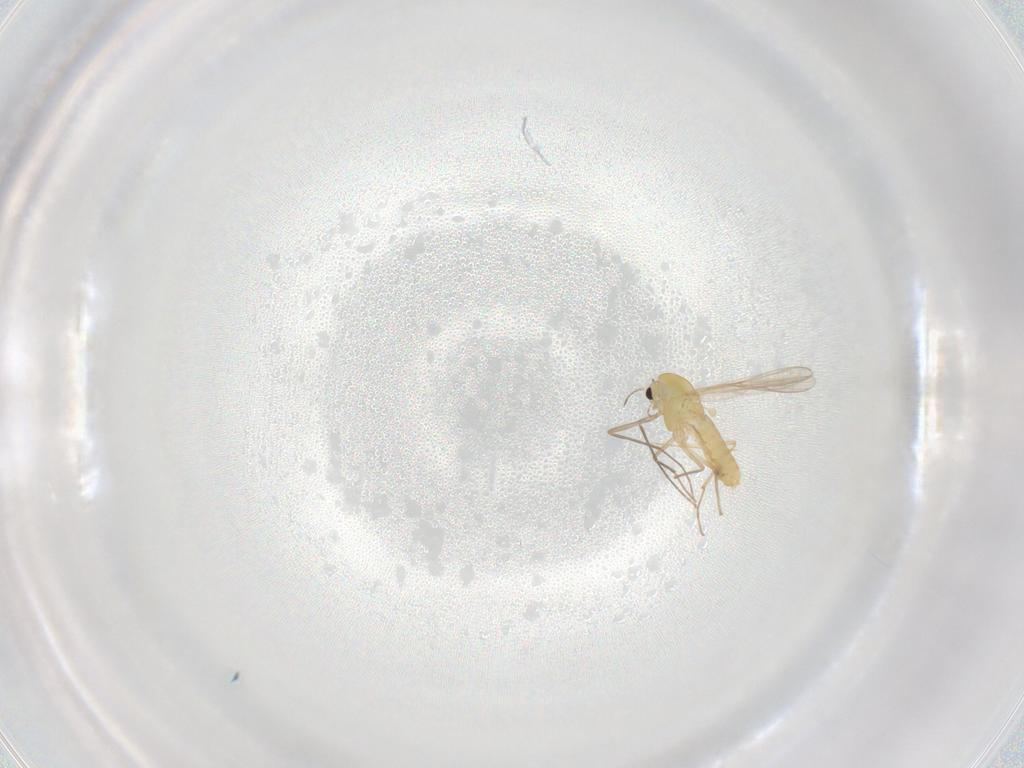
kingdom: Animalia
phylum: Arthropoda
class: Insecta
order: Diptera
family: Chironomidae
